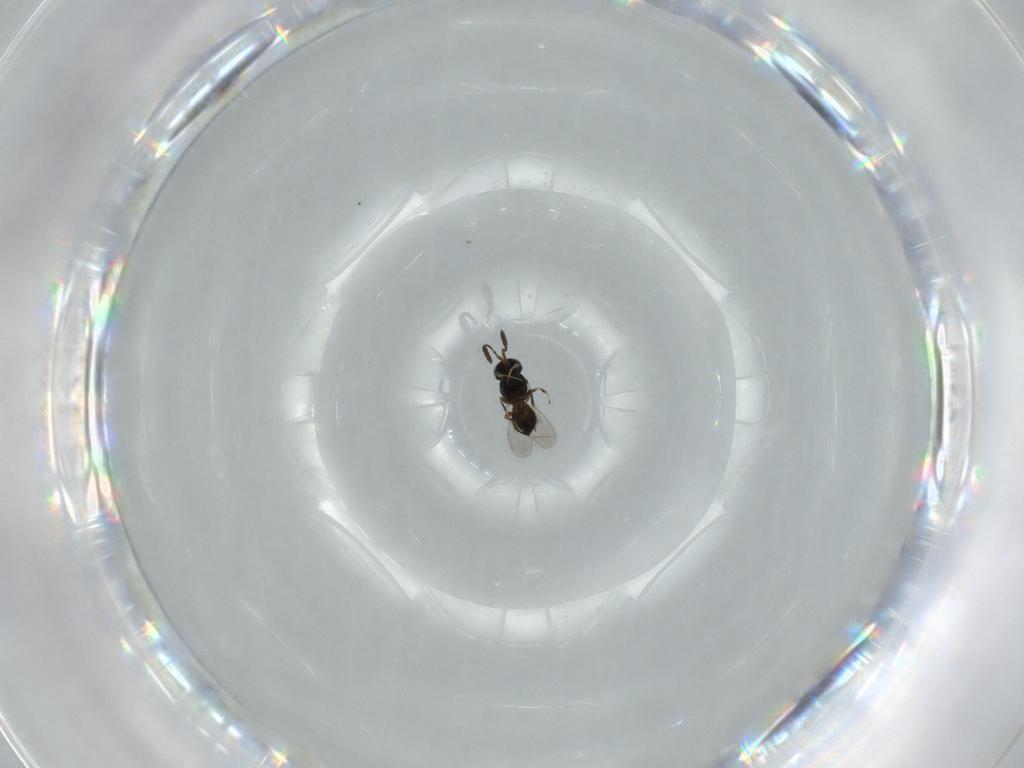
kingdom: Animalia
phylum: Arthropoda
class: Insecta
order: Hymenoptera
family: Scelionidae
